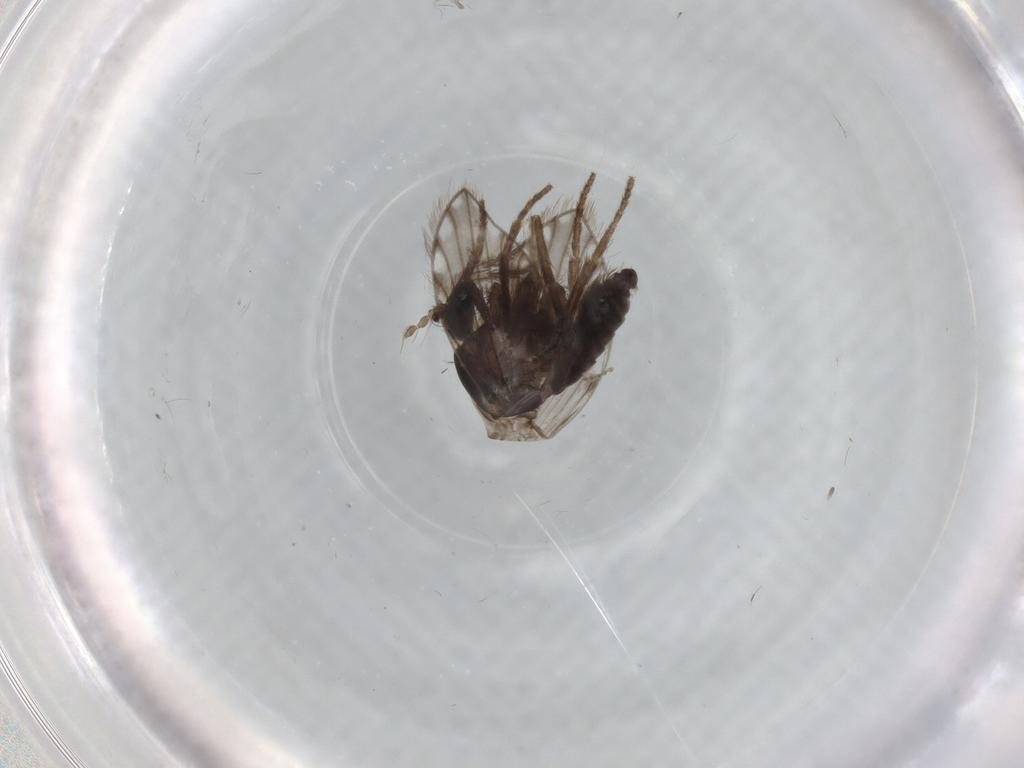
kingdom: Animalia
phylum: Arthropoda
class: Insecta
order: Diptera
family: Psychodidae
